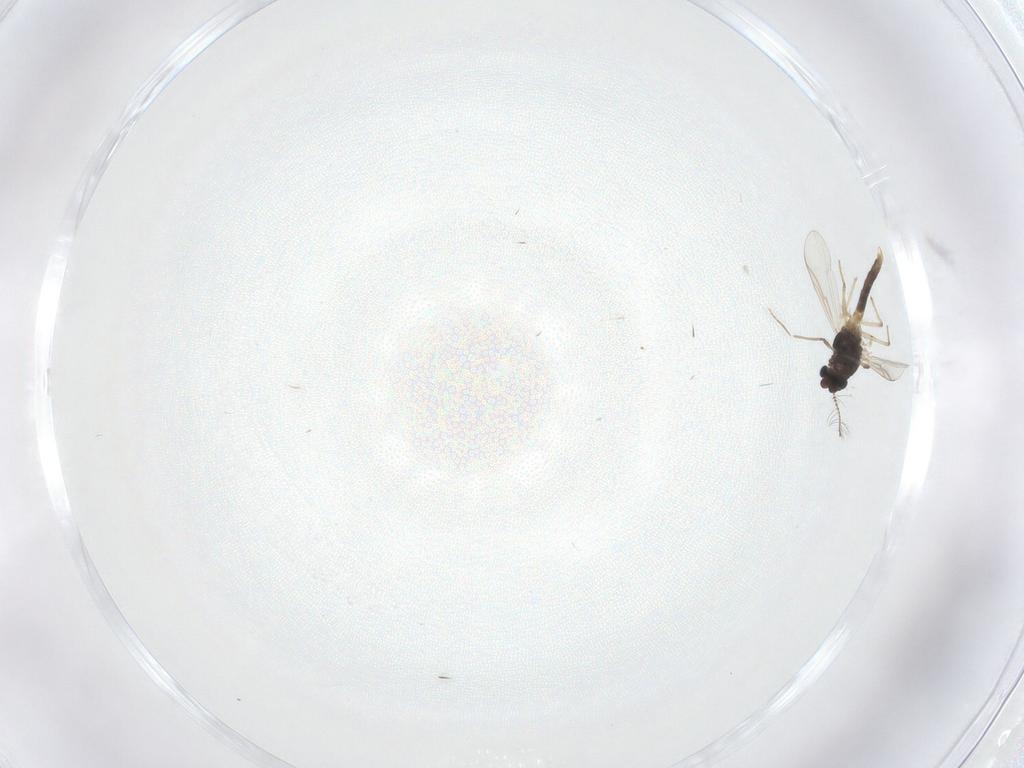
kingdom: Animalia
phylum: Arthropoda
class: Insecta
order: Diptera
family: Chironomidae
